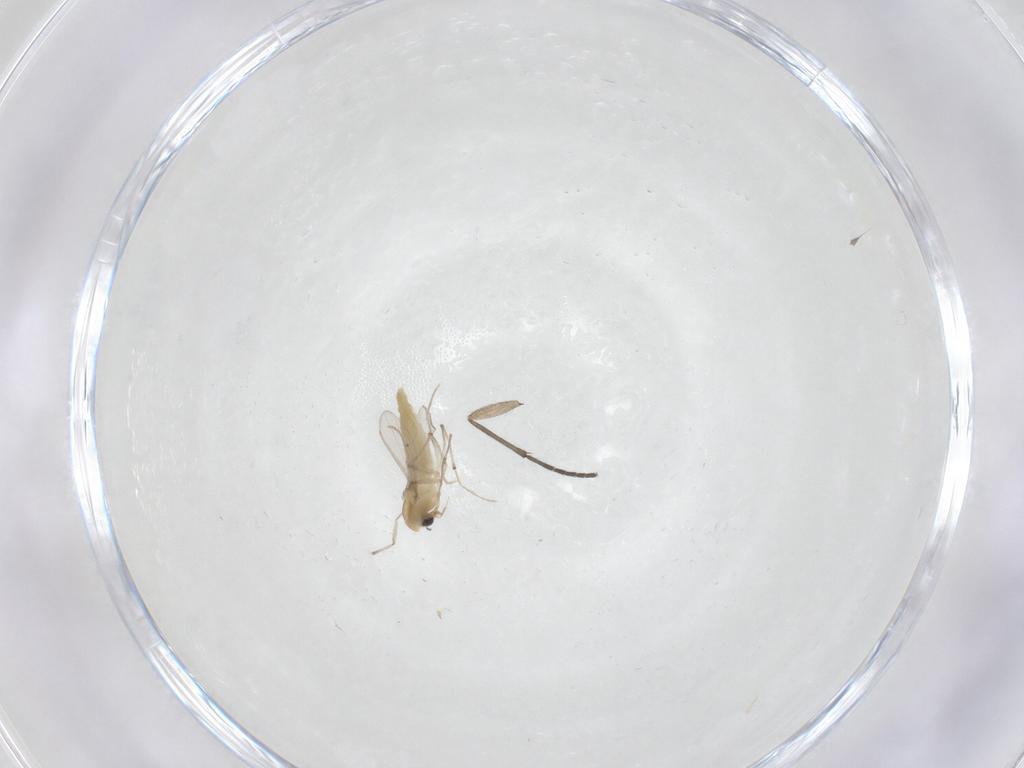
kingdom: Animalia
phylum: Arthropoda
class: Insecta
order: Diptera
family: Chironomidae
